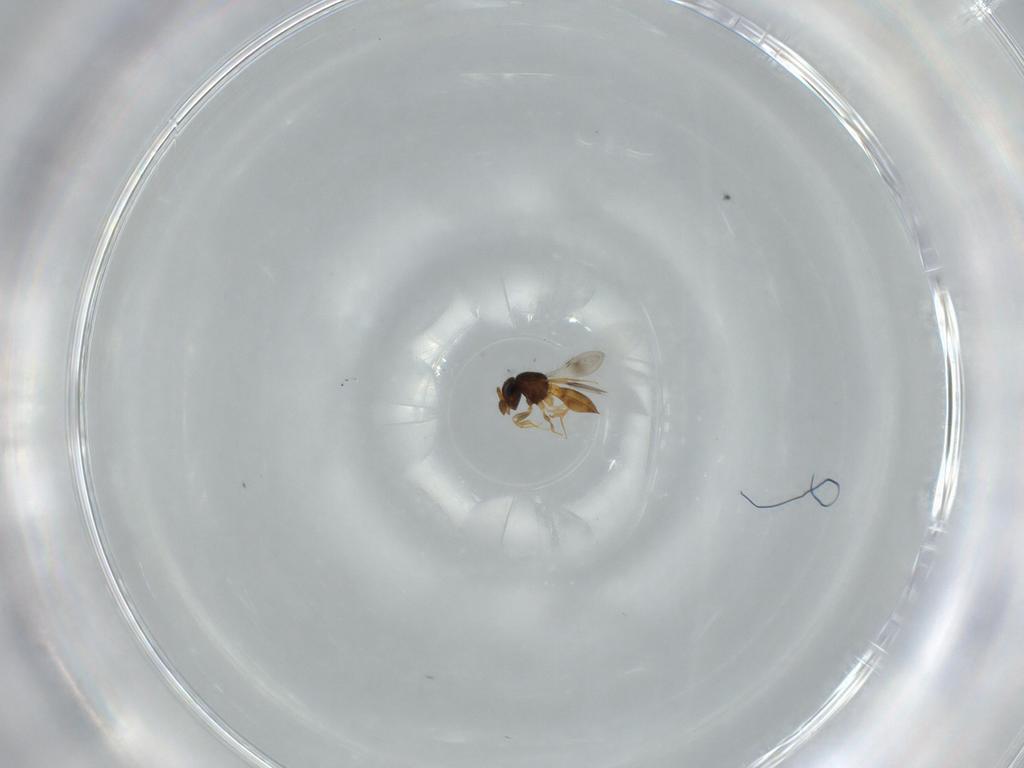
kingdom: Animalia
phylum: Arthropoda
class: Insecta
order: Hymenoptera
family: Scelionidae
